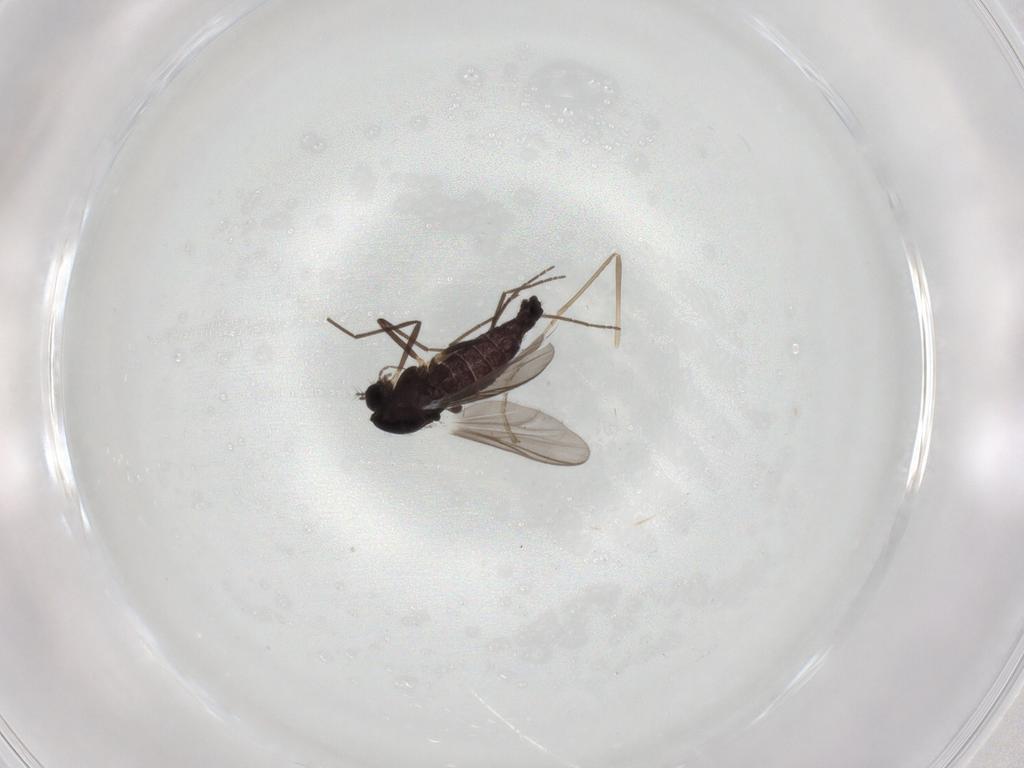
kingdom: Animalia
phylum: Arthropoda
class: Insecta
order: Diptera
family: Chironomidae
